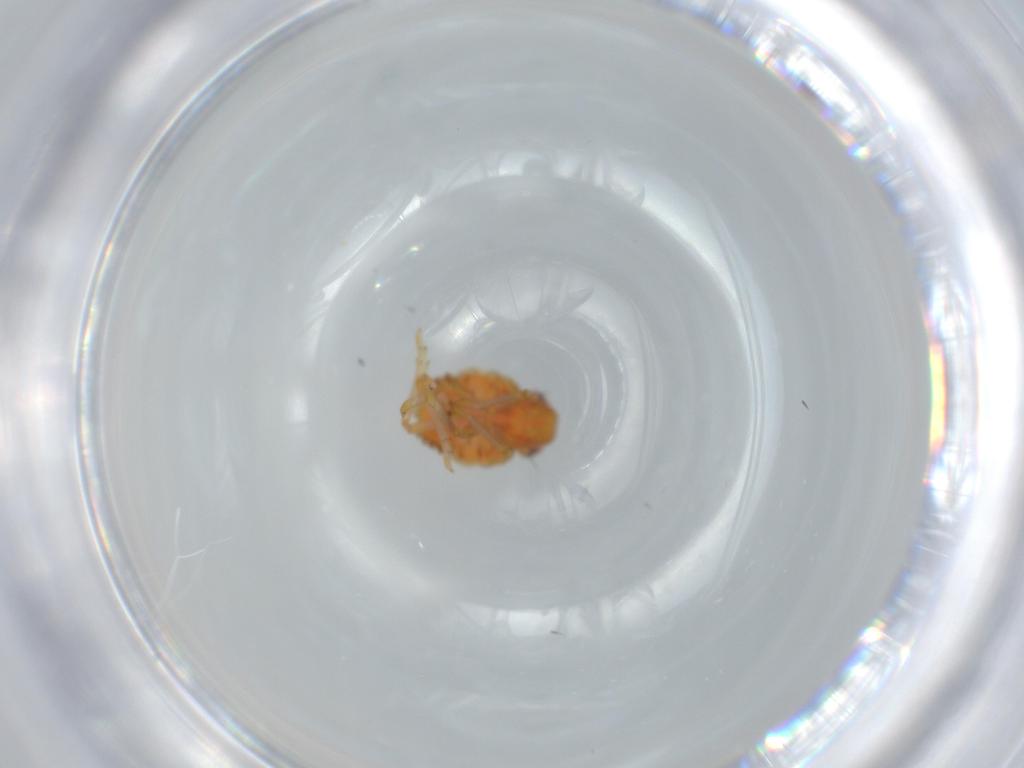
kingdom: Animalia
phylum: Arthropoda
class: Insecta
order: Hemiptera
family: Issidae
